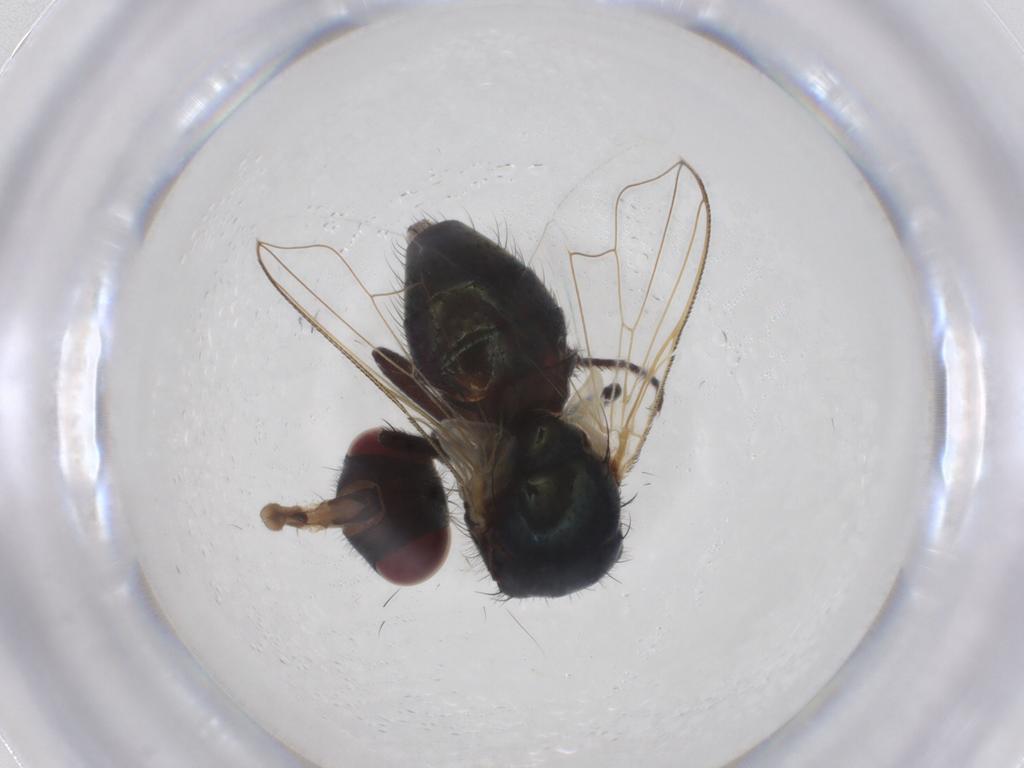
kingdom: Animalia
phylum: Arthropoda
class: Insecta
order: Diptera
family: Muscidae
